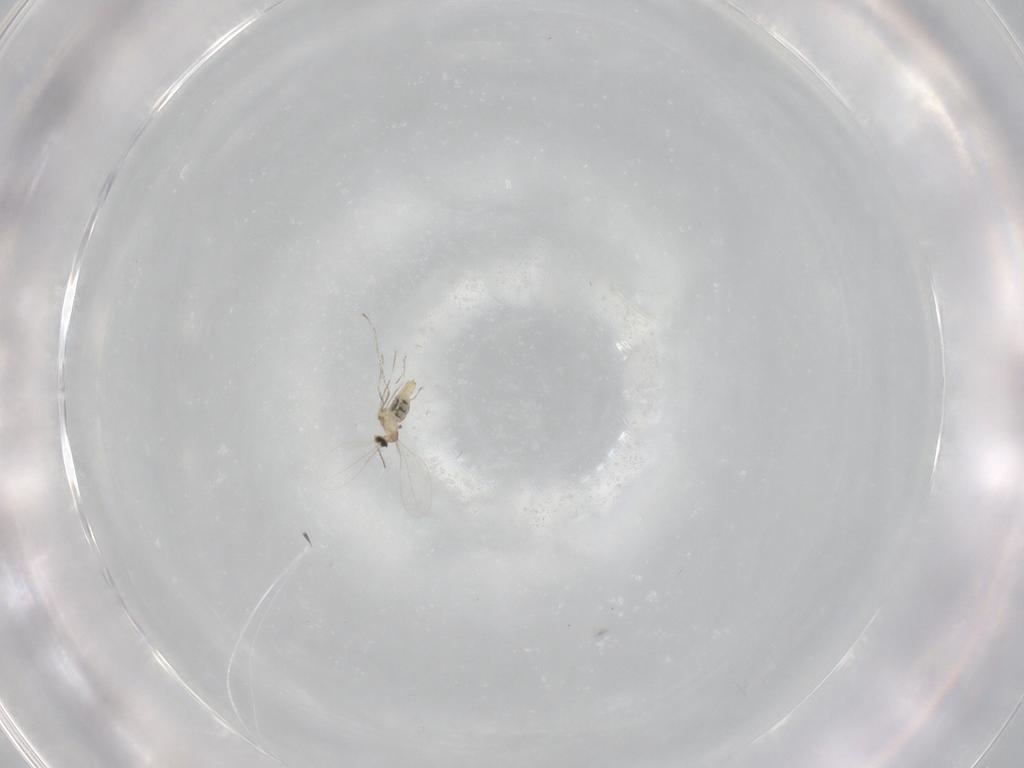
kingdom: Animalia
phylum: Arthropoda
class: Insecta
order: Diptera
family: Cecidomyiidae
